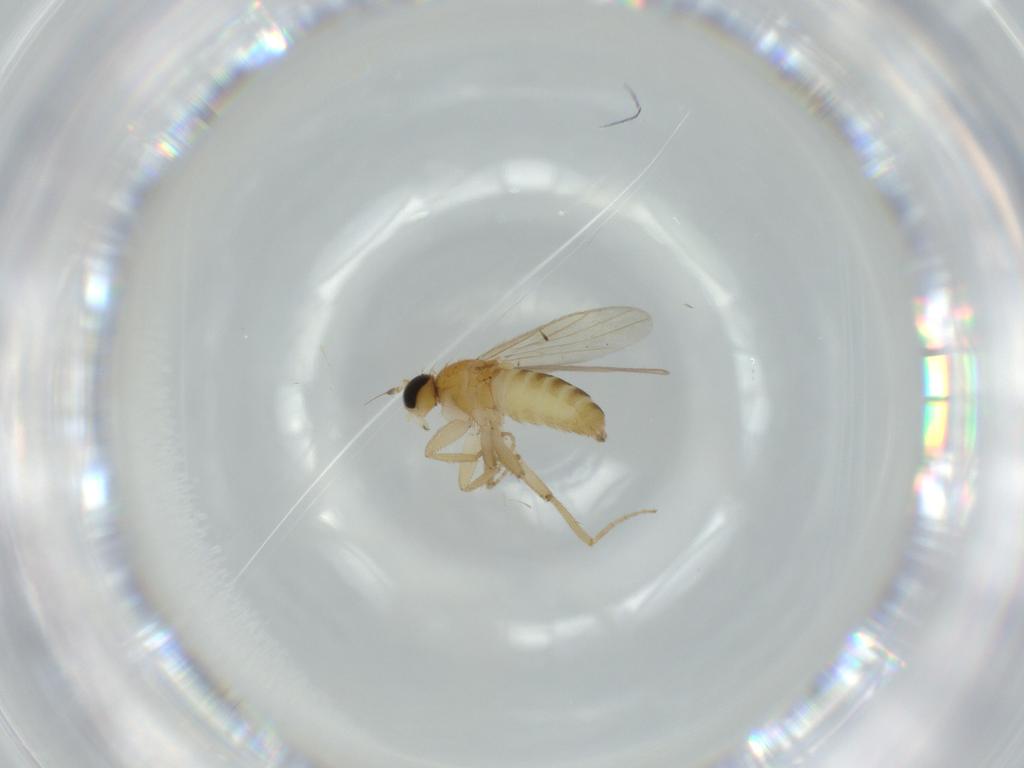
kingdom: Animalia
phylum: Arthropoda
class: Insecta
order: Diptera
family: Hybotidae
